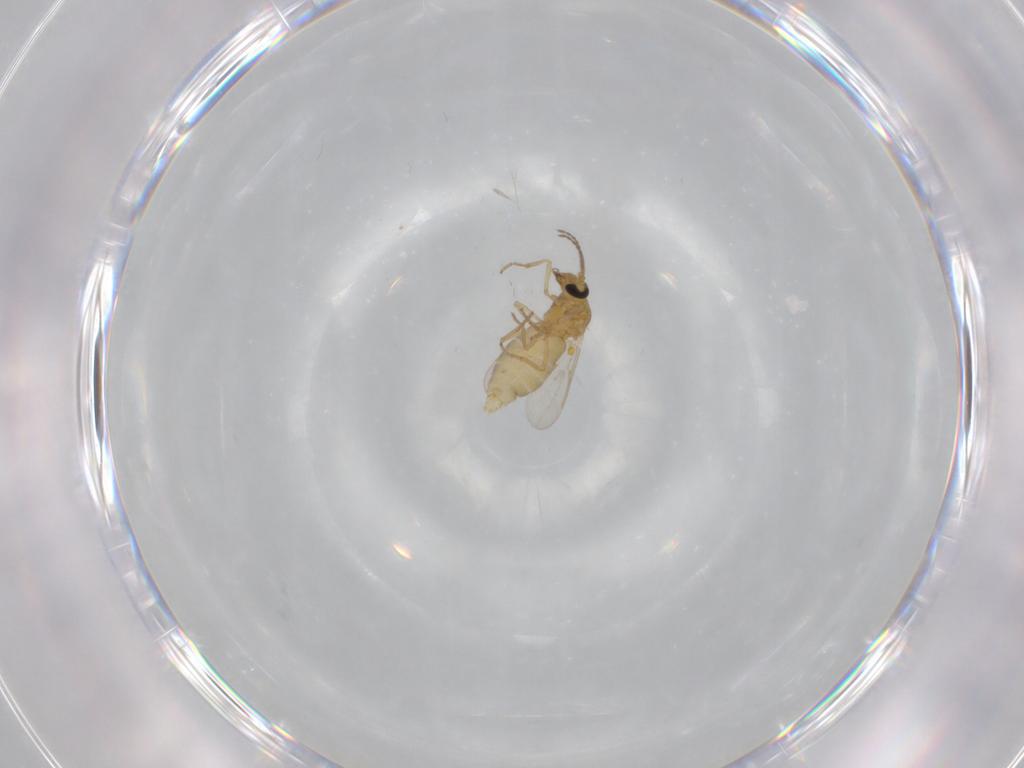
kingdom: Animalia
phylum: Arthropoda
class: Insecta
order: Diptera
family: Ceratopogonidae
